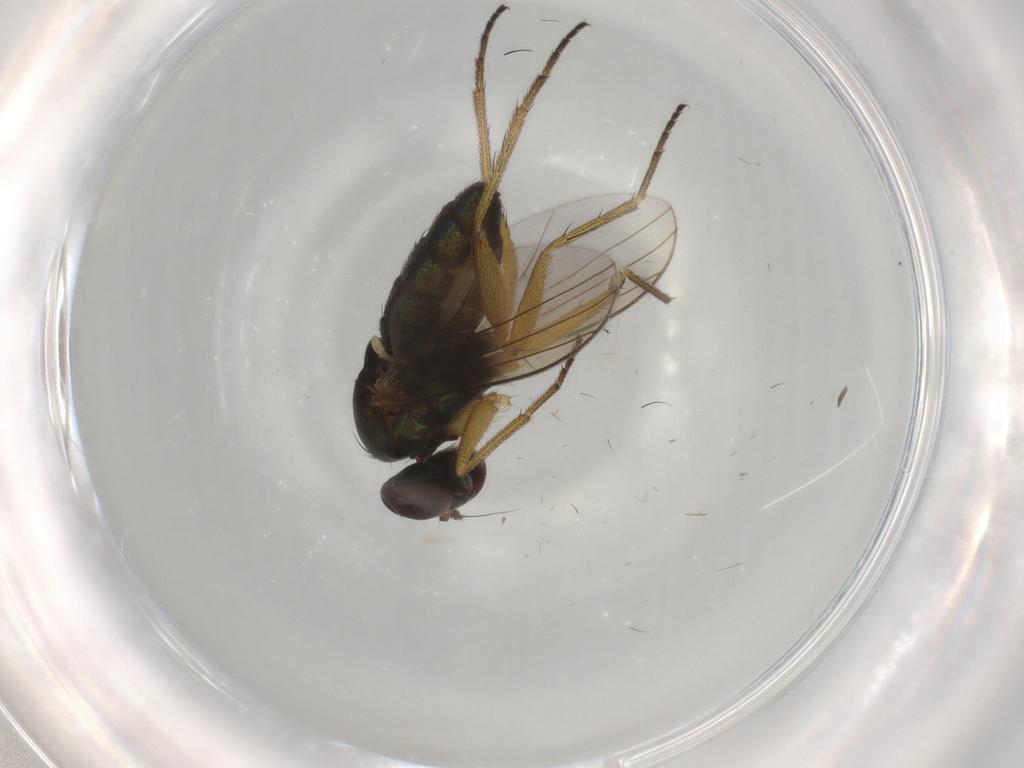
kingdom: Animalia
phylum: Arthropoda
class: Insecta
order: Diptera
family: Dolichopodidae
